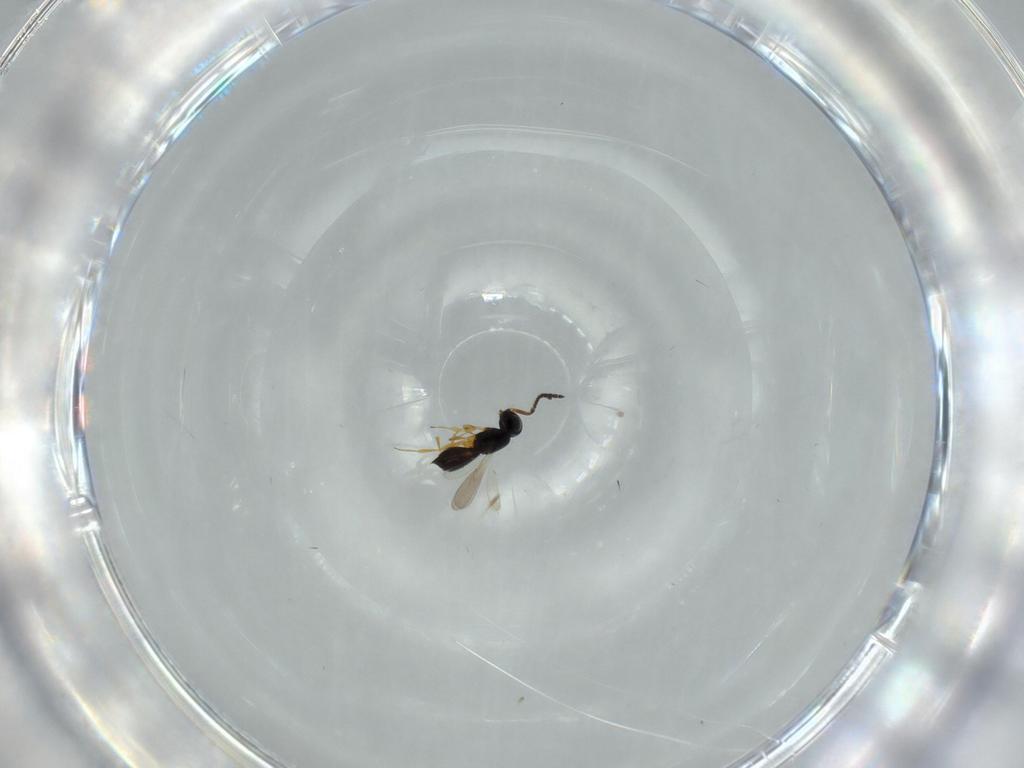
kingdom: Animalia
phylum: Arthropoda
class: Insecta
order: Hymenoptera
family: Scelionidae
